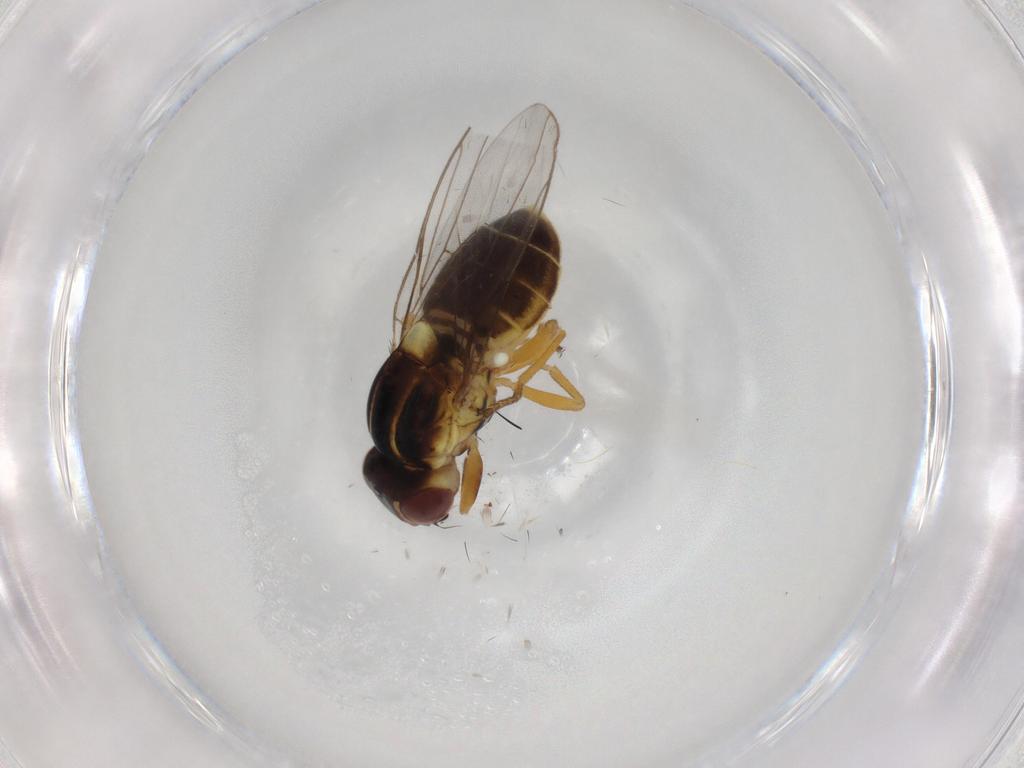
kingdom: Animalia
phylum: Arthropoda
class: Insecta
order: Diptera
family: Chloropidae
